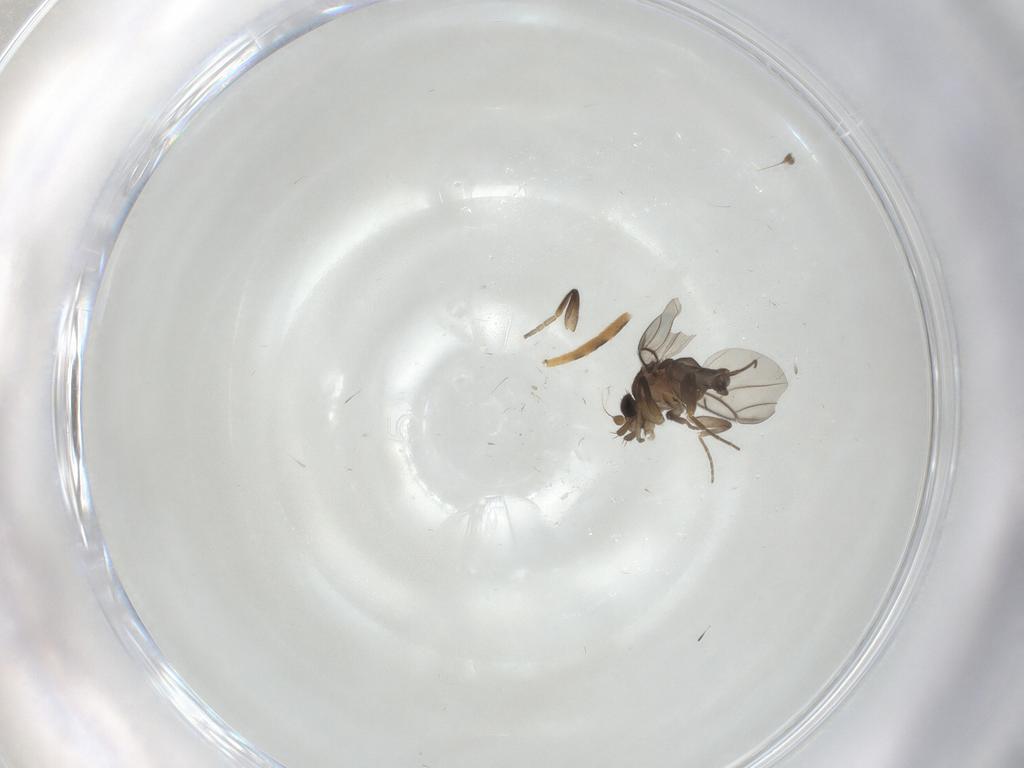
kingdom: Animalia
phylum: Arthropoda
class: Insecta
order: Diptera
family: Phoridae
